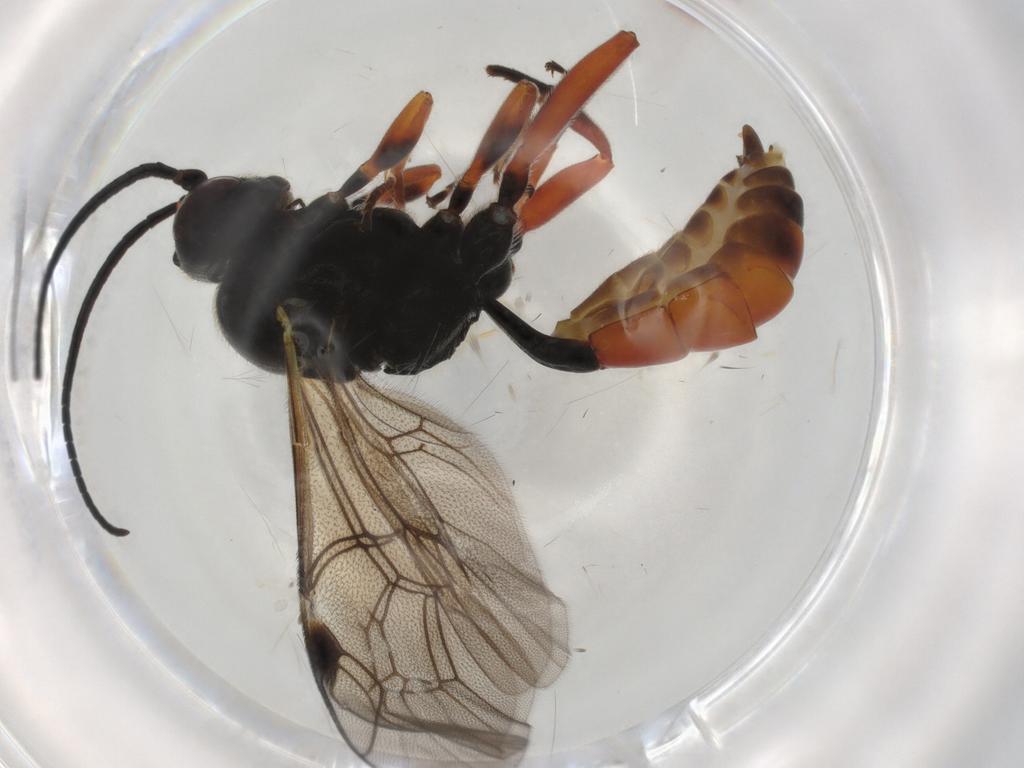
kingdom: Animalia
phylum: Arthropoda
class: Insecta
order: Hymenoptera
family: Ichneumonidae
